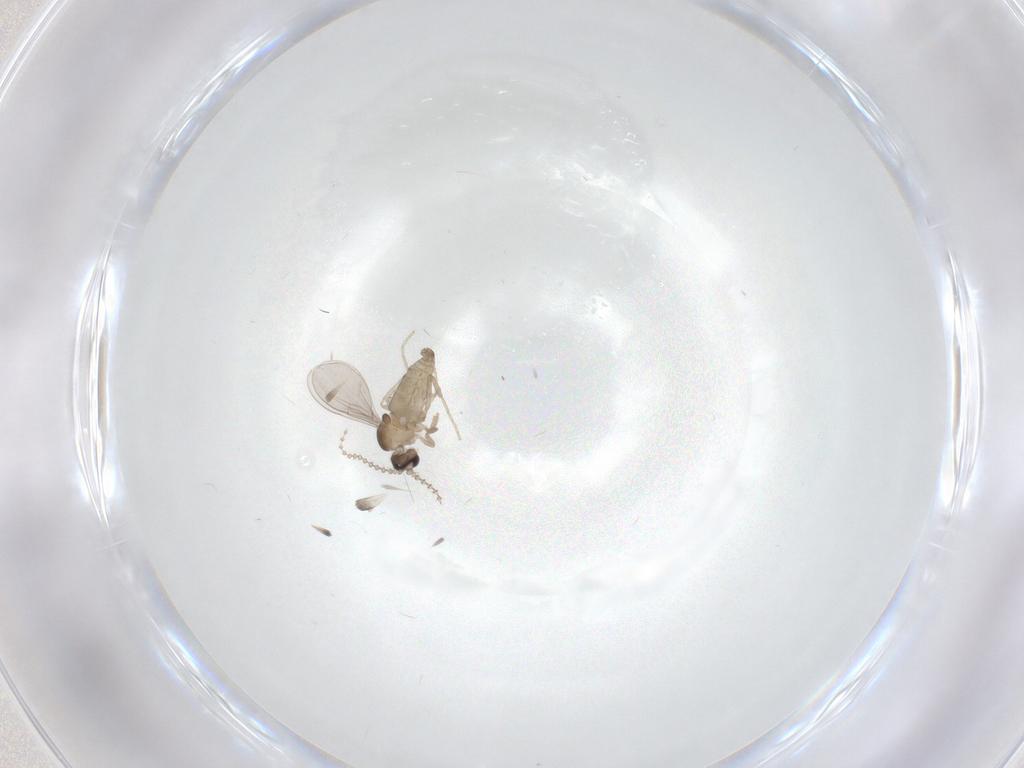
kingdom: Animalia
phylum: Arthropoda
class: Insecta
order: Diptera
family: Cecidomyiidae
